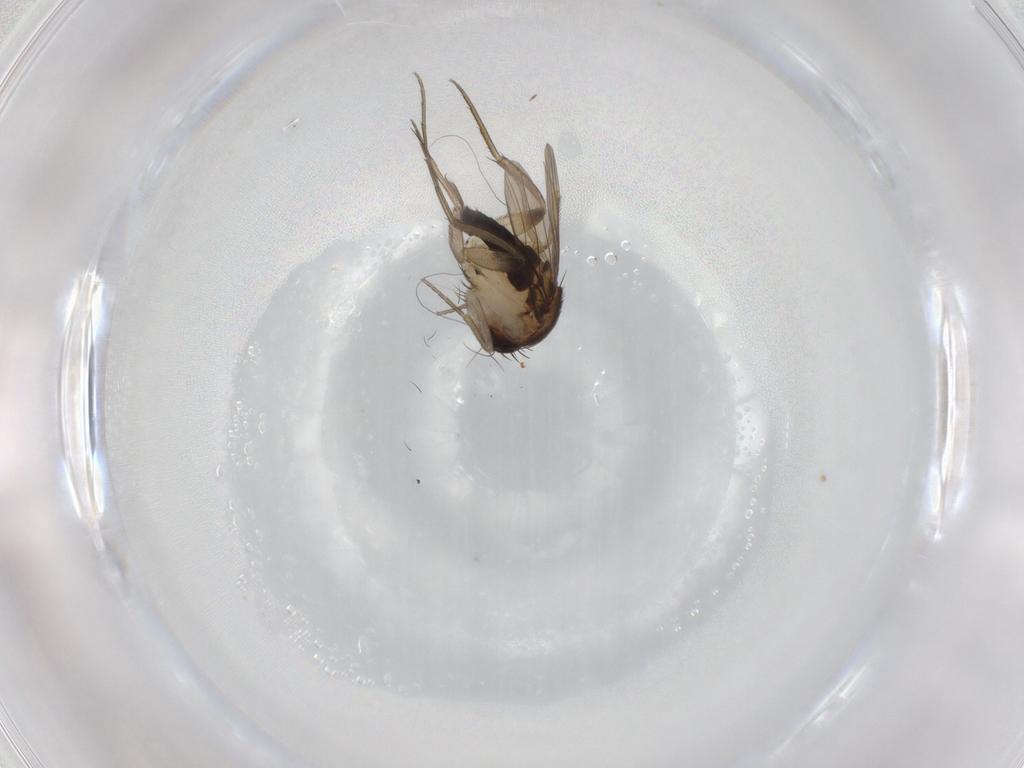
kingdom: Animalia
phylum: Arthropoda
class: Insecta
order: Diptera
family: Phoridae
